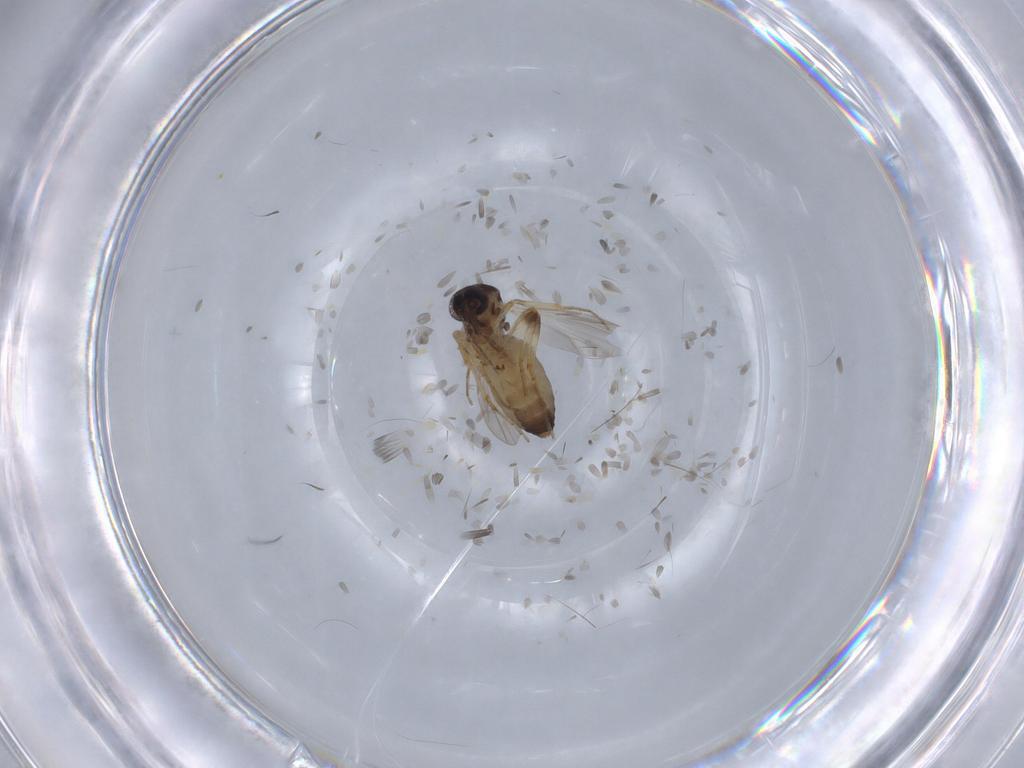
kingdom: Animalia
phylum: Arthropoda
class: Insecta
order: Diptera
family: Ceratopogonidae
